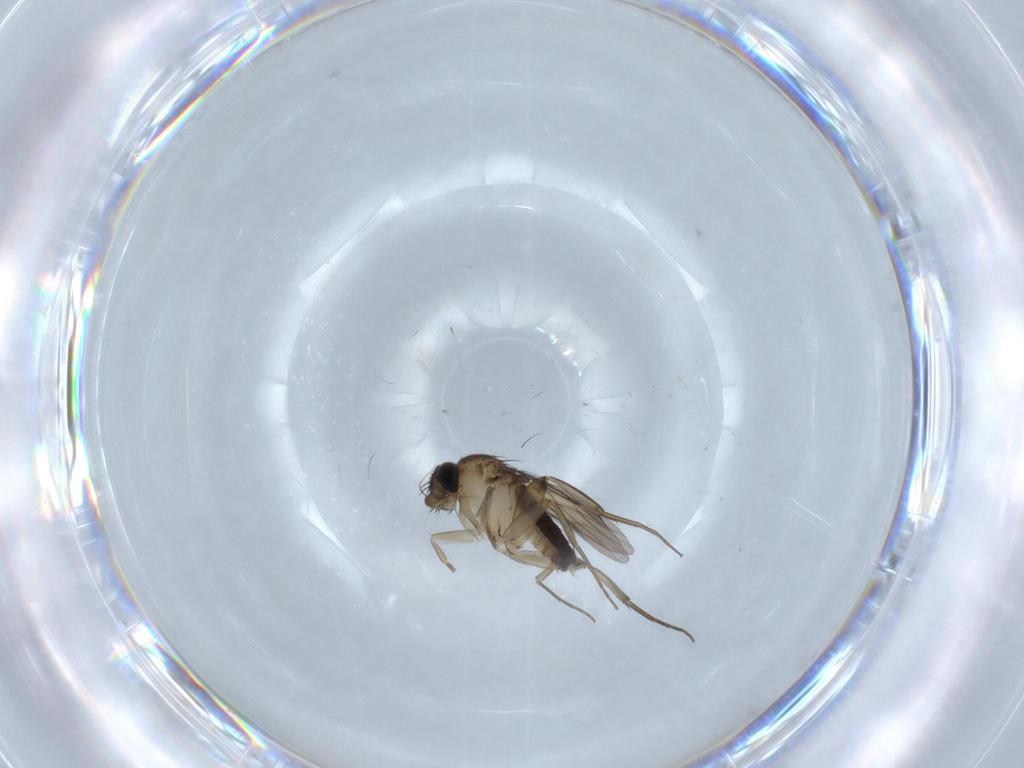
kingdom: Animalia
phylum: Arthropoda
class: Insecta
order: Diptera
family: Phoridae
